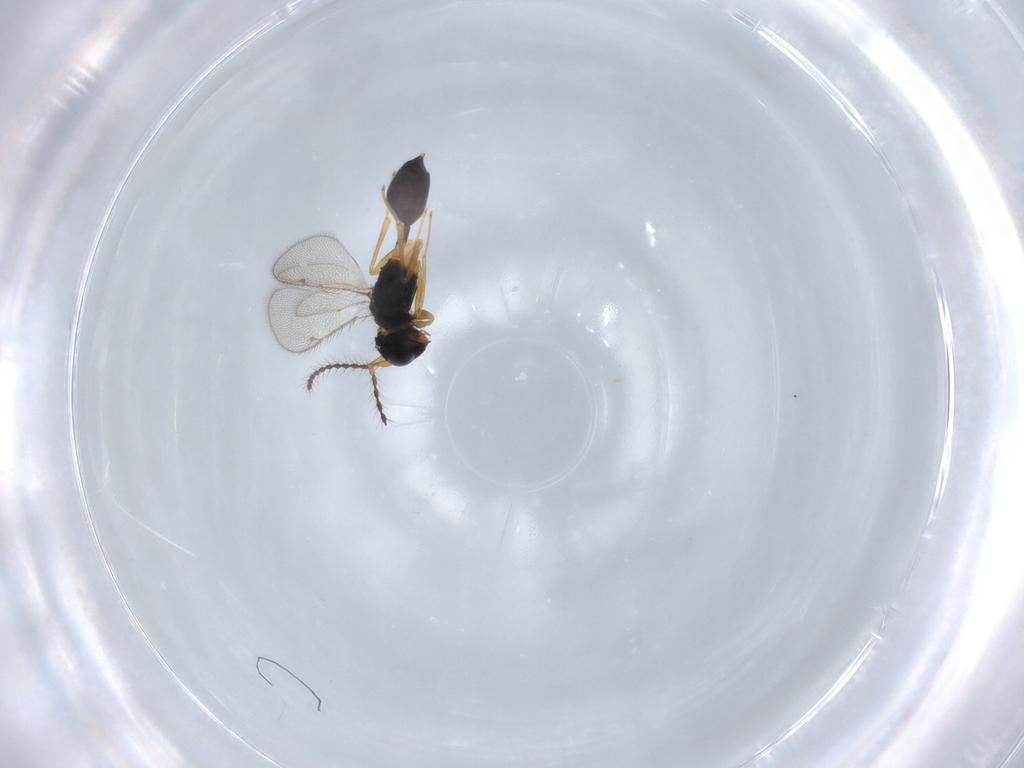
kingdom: Animalia
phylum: Arthropoda
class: Insecta
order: Hymenoptera
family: Pteromalidae
